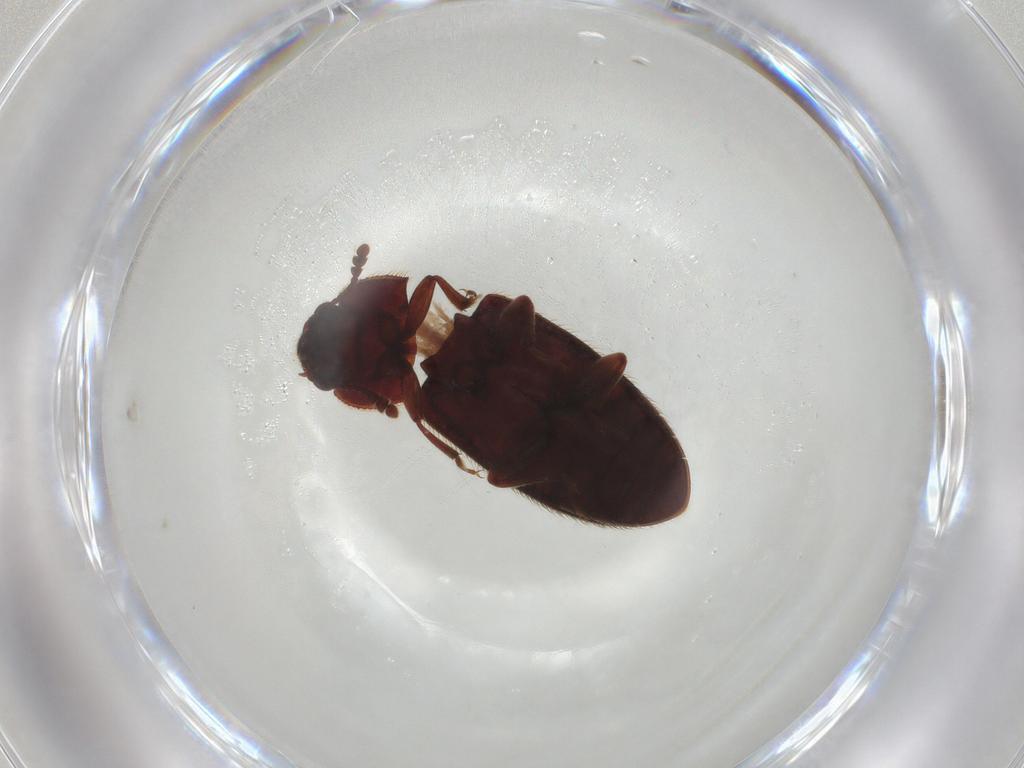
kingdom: Animalia
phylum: Arthropoda
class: Insecta
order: Coleoptera
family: Biphyllidae
